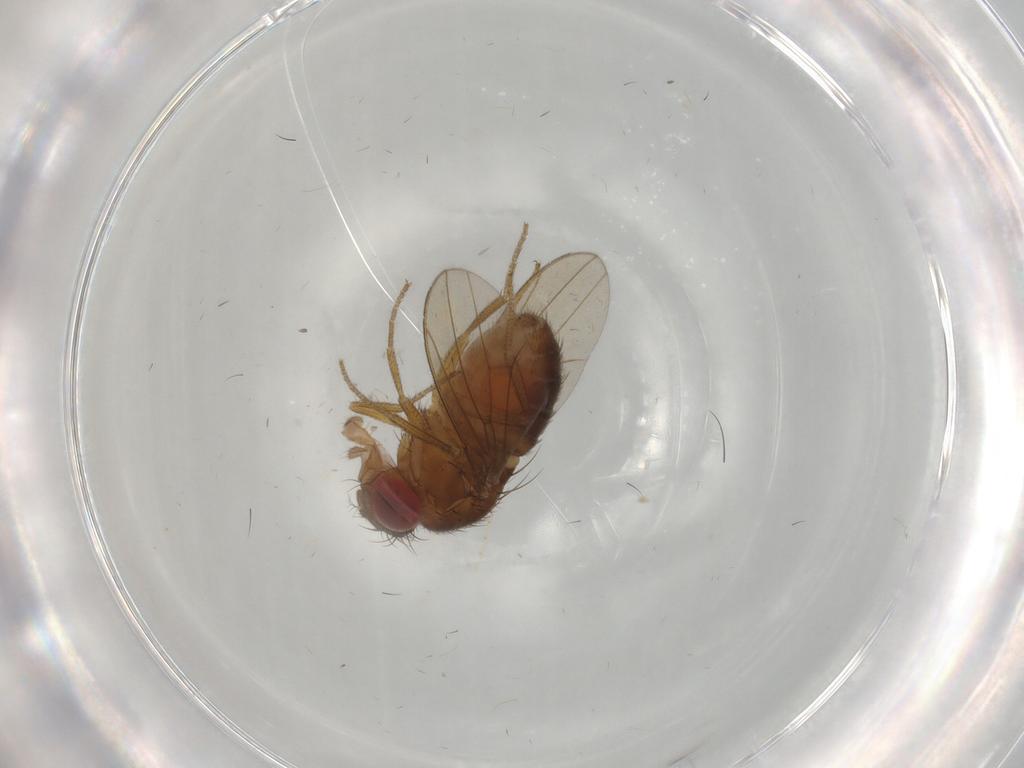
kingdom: Animalia
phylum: Arthropoda
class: Insecta
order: Diptera
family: Drosophilidae
